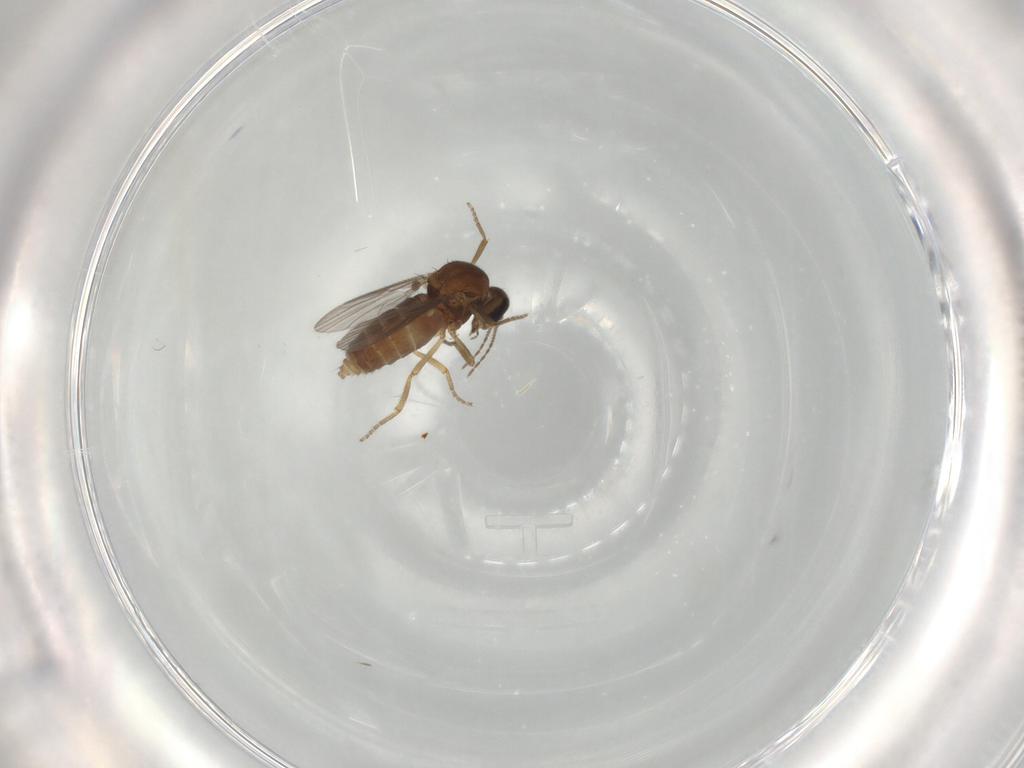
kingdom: Animalia
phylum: Arthropoda
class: Insecta
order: Diptera
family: Ceratopogonidae
